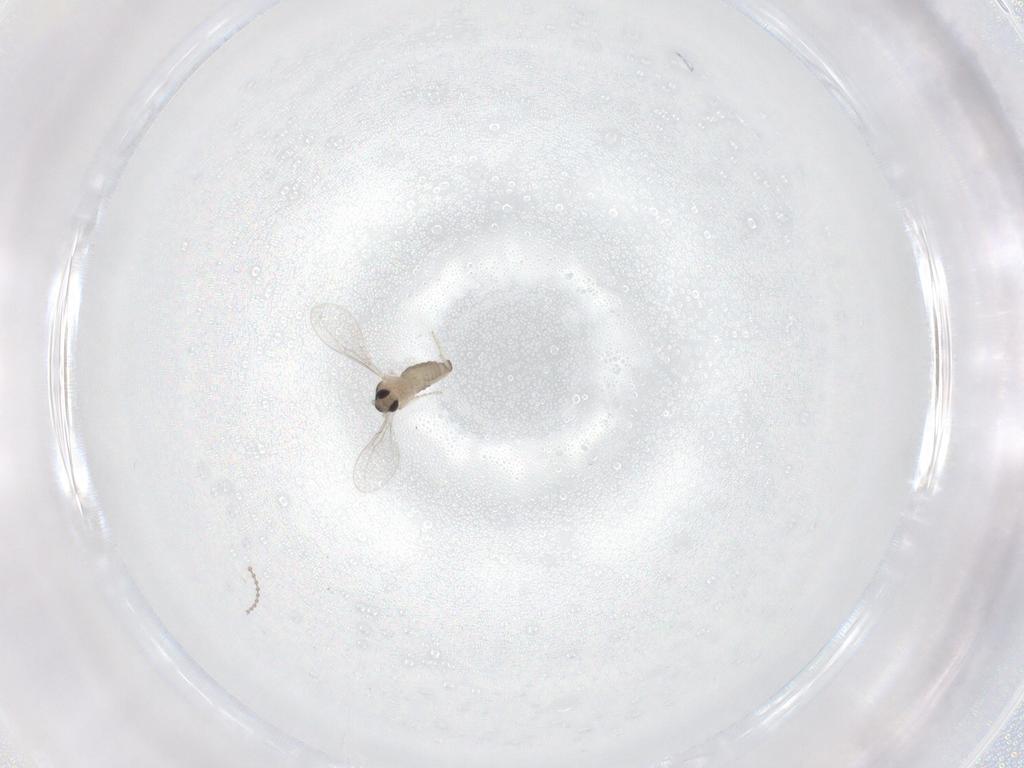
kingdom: Animalia
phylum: Arthropoda
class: Insecta
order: Diptera
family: Cecidomyiidae
